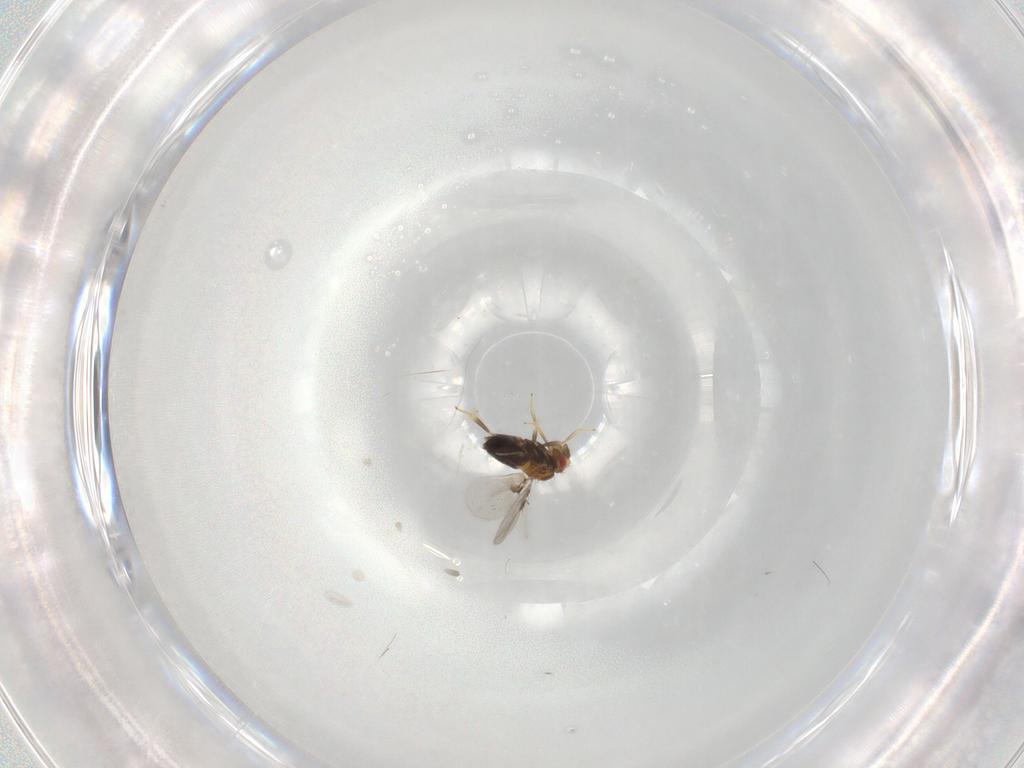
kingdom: Animalia
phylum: Arthropoda
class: Insecta
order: Hymenoptera
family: Trichogrammatidae
